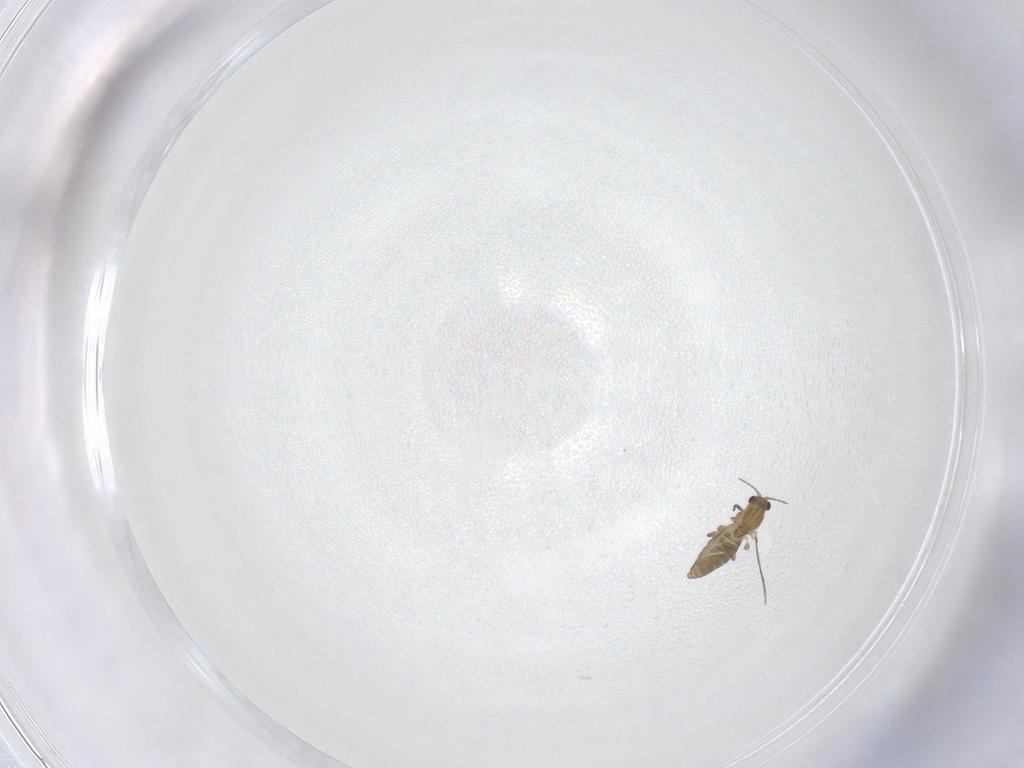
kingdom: Animalia
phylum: Arthropoda
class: Insecta
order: Diptera
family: Chironomidae
